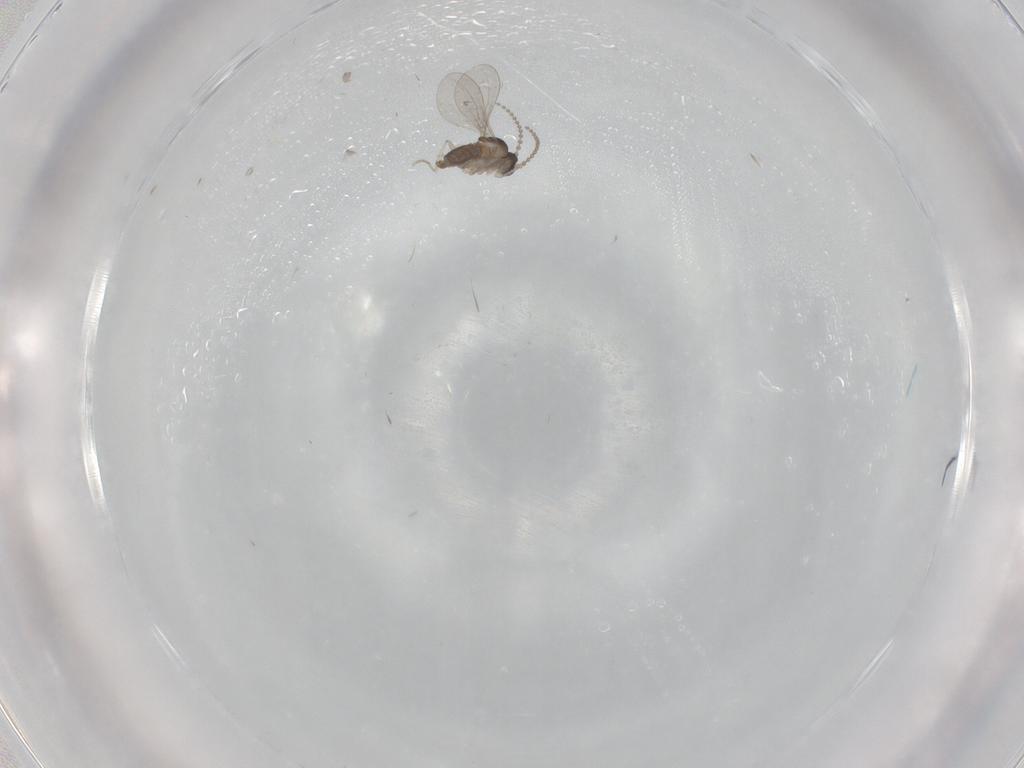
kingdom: Animalia
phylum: Arthropoda
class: Insecta
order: Diptera
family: Cecidomyiidae
